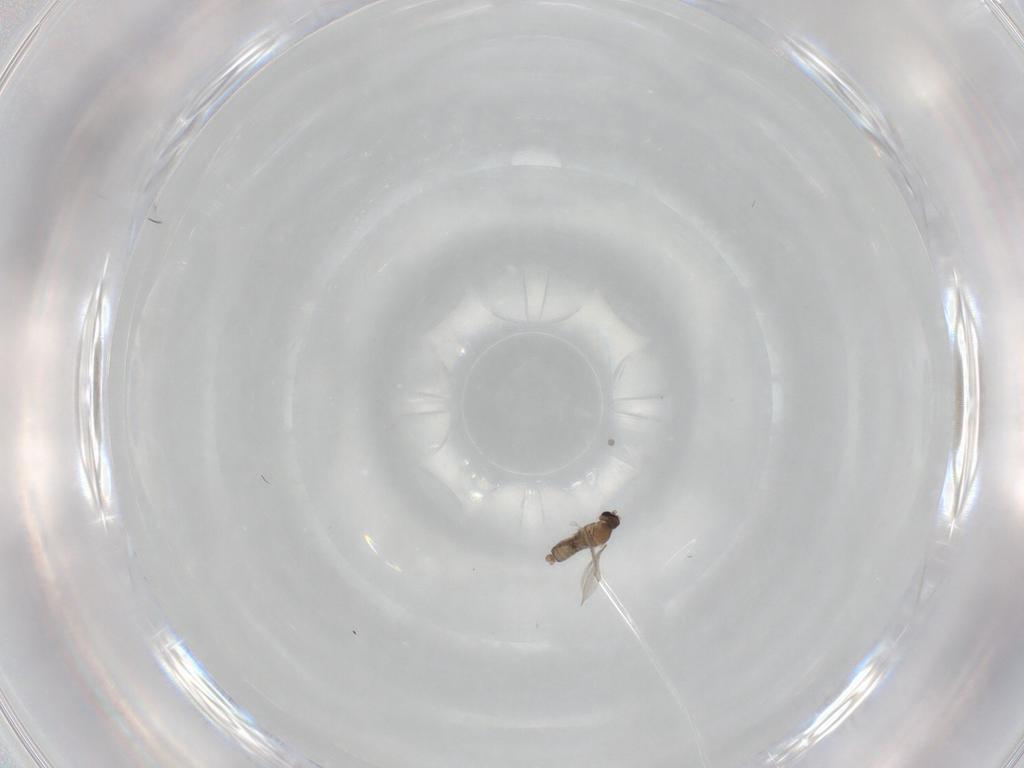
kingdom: Animalia
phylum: Arthropoda
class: Insecta
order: Diptera
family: Cecidomyiidae
